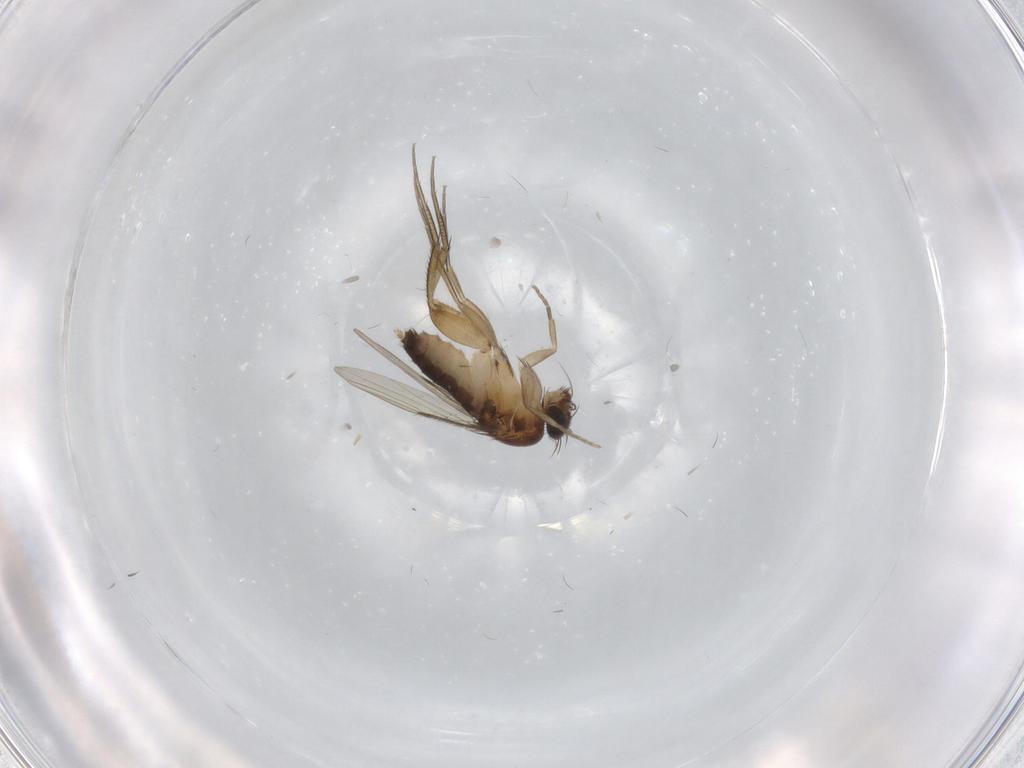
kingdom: Animalia
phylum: Arthropoda
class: Insecta
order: Diptera
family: Phoridae
